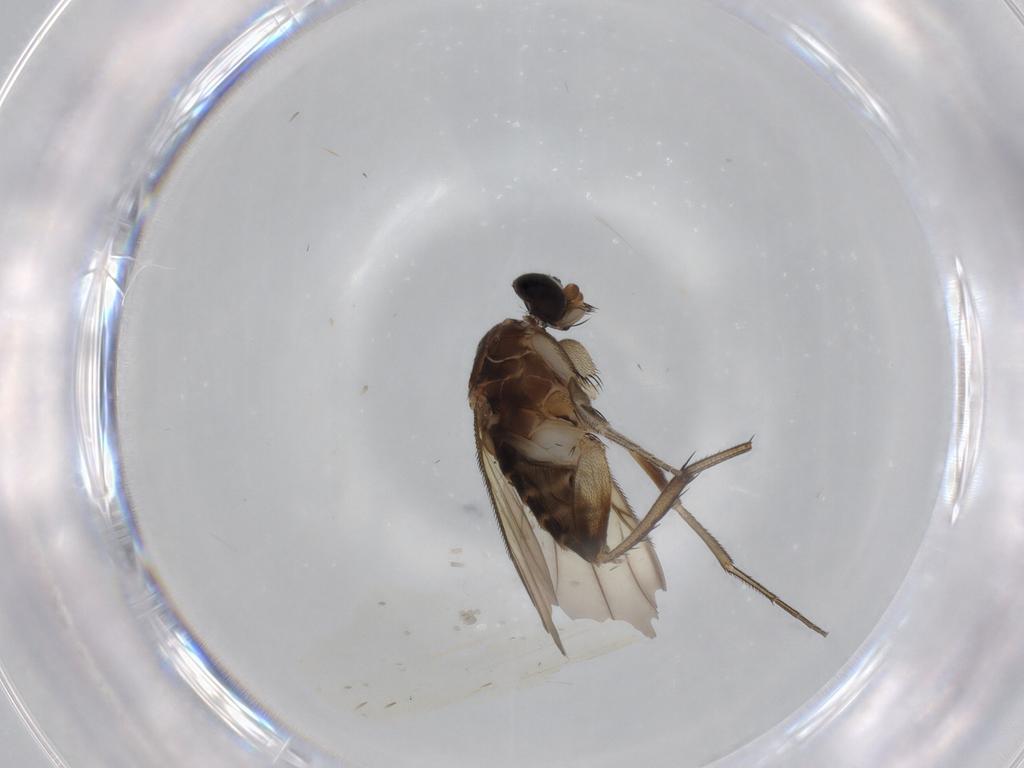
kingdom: Animalia
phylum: Arthropoda
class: Insecta
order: Diptera
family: Phoridae
